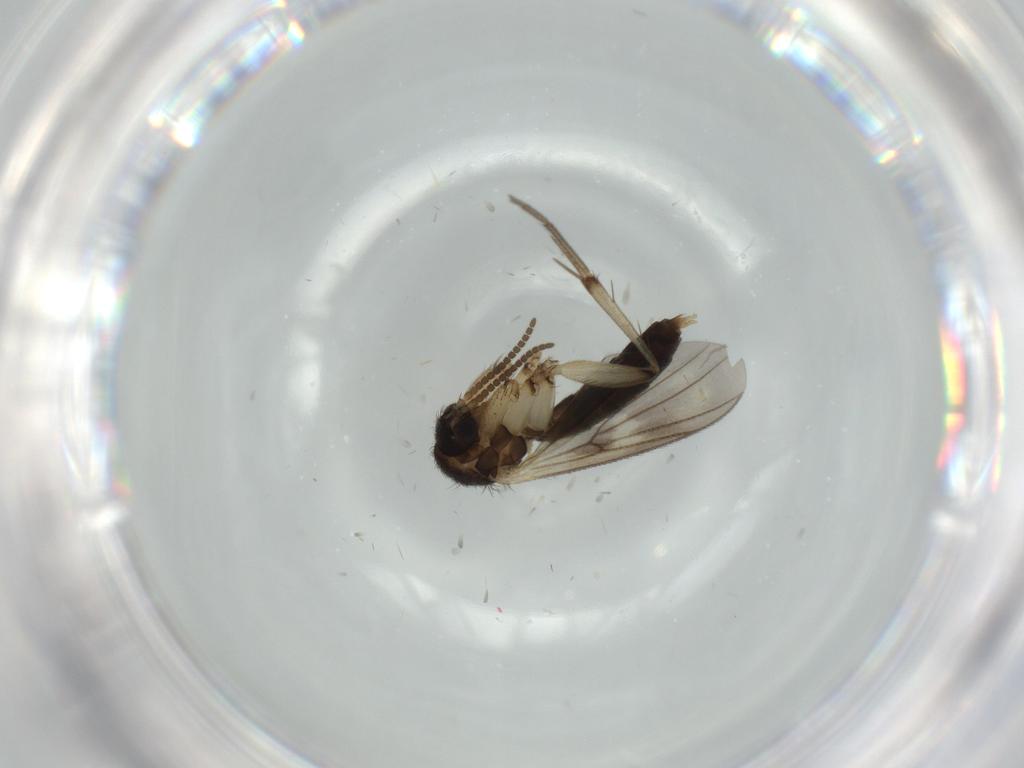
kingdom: Animalia
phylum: Arthropoda
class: Insecta
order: Diptera
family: Cecidomyiidae
